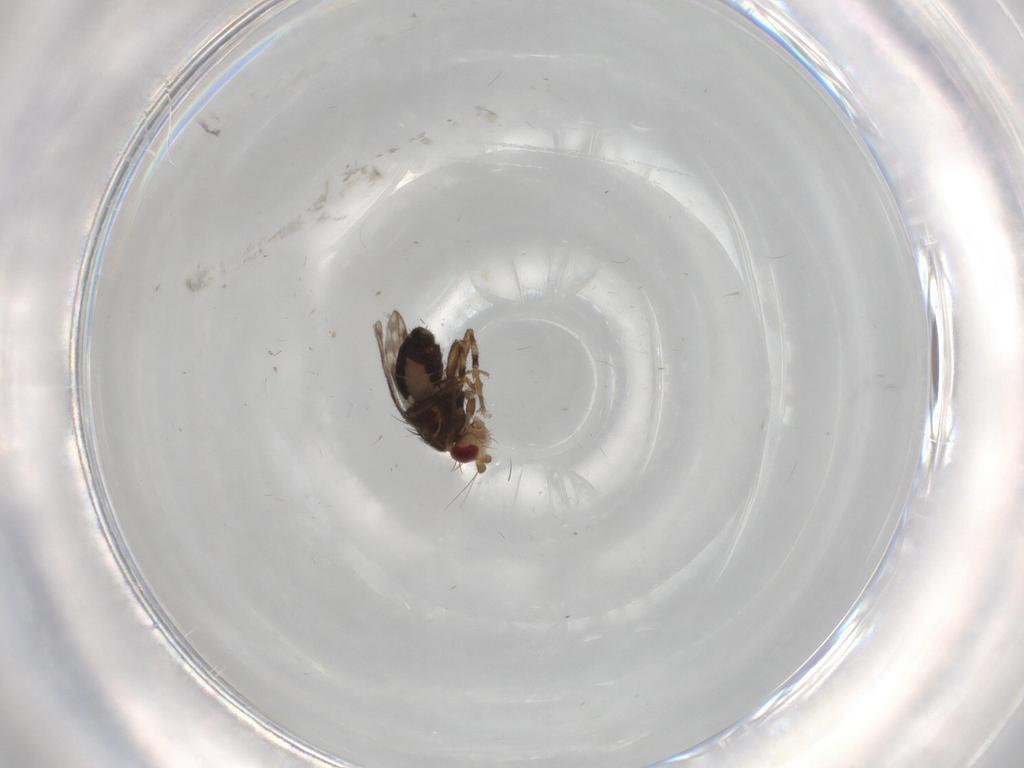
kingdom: Animalia
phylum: Arthropoda
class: Insecta
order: Diptera
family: Sphaeroceridae
